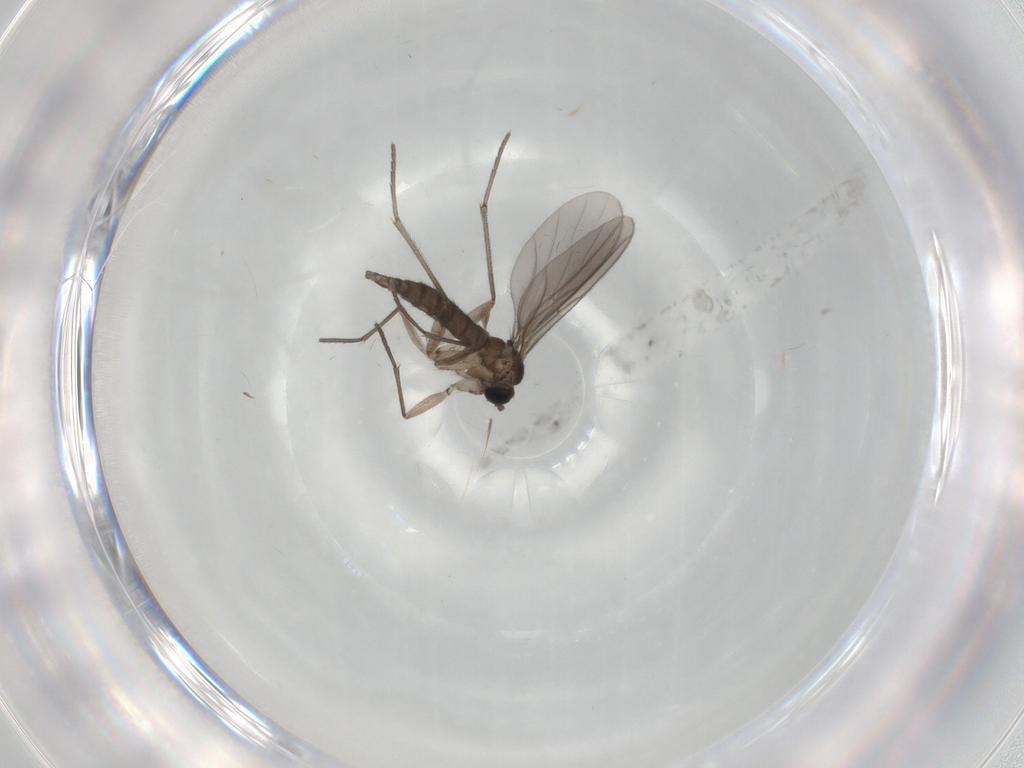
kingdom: Animalia
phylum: Arthropoda
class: Insecta
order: Diptera
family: Sciaridae
